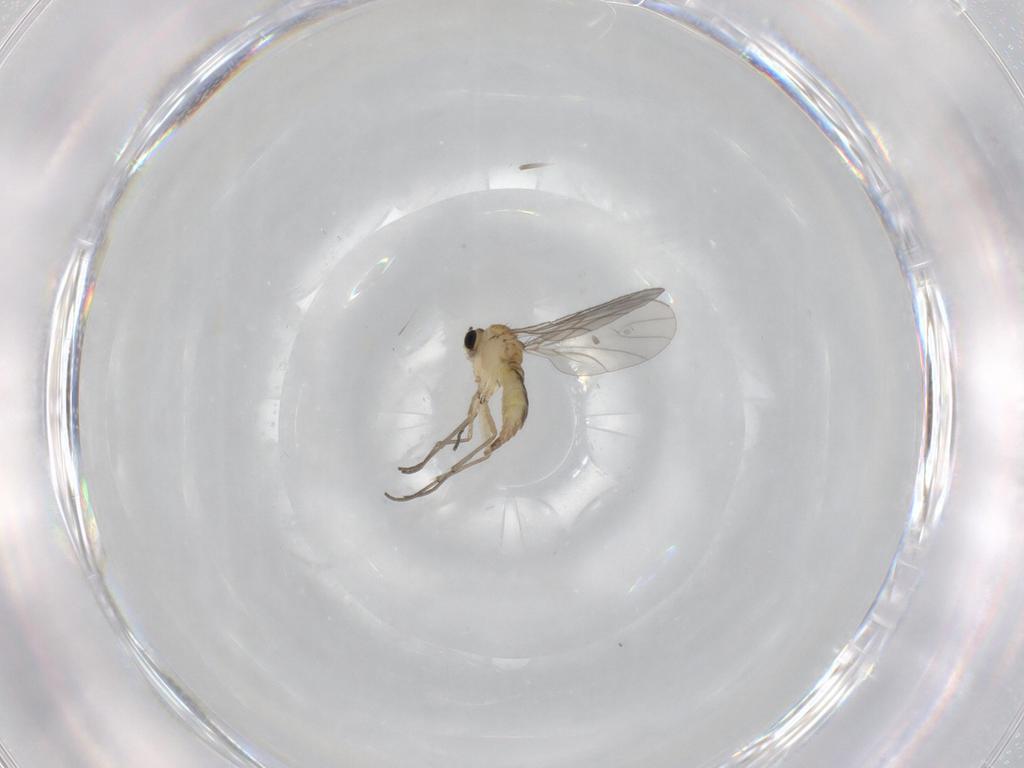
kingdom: Animalia
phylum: Arthropoda
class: Insecta
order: Diptera
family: Sciaridae
